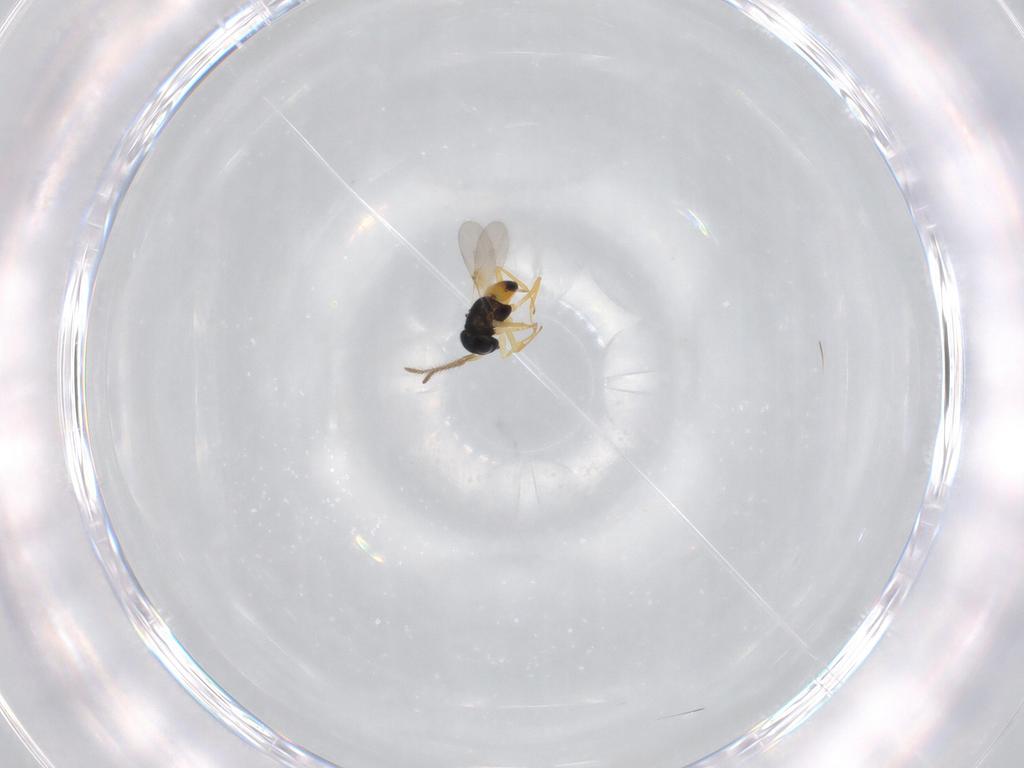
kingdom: Animalia
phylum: Arthropoda
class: Insecta
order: Hymenoptera
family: Encyrtidae
